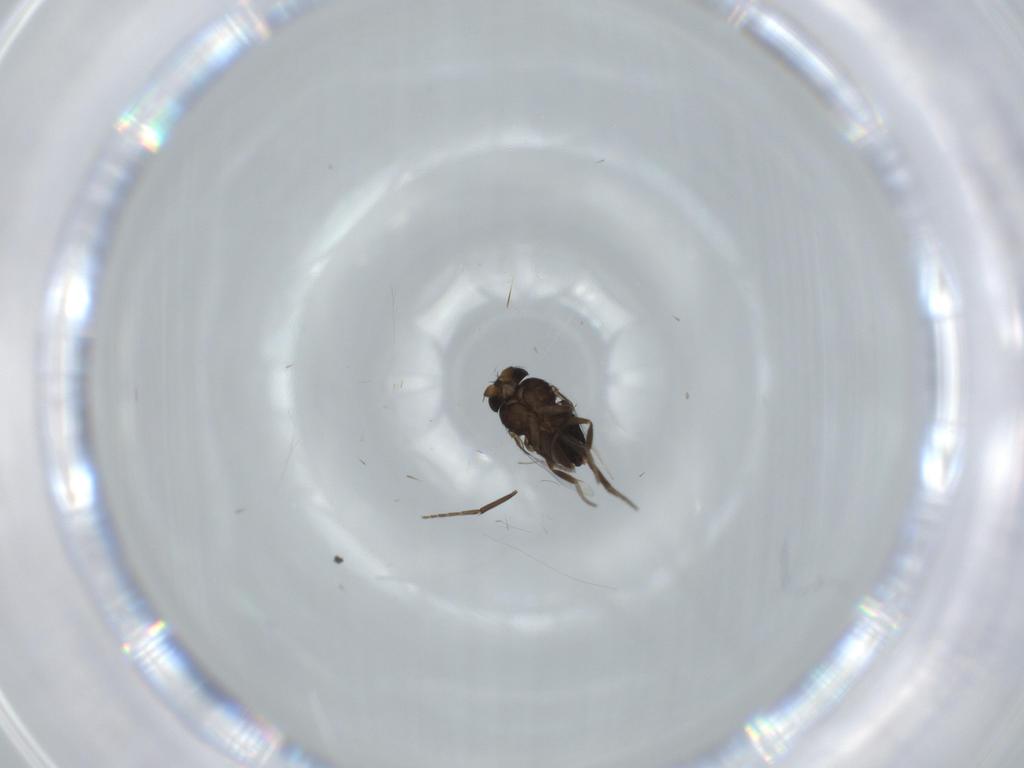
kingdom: Animalia
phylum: Arthropoda
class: Insecta
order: Diptera
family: Phoridae
